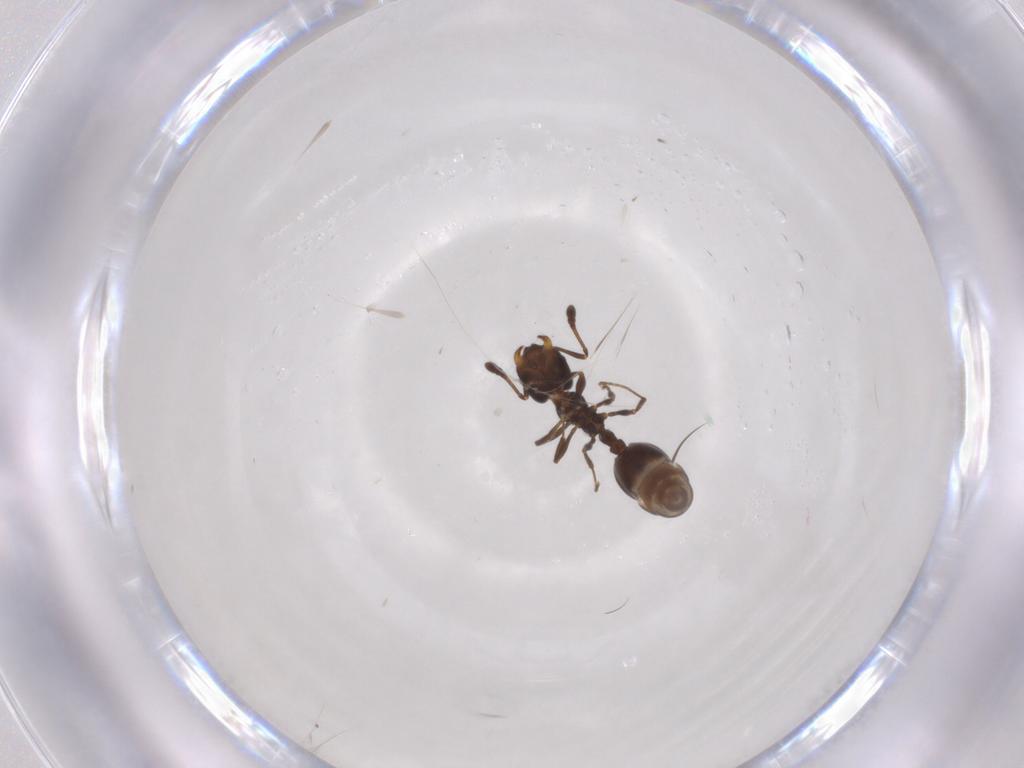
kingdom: Animalia
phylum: Arthropoda
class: Insecta
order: Hymenoptera
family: Formicidae
